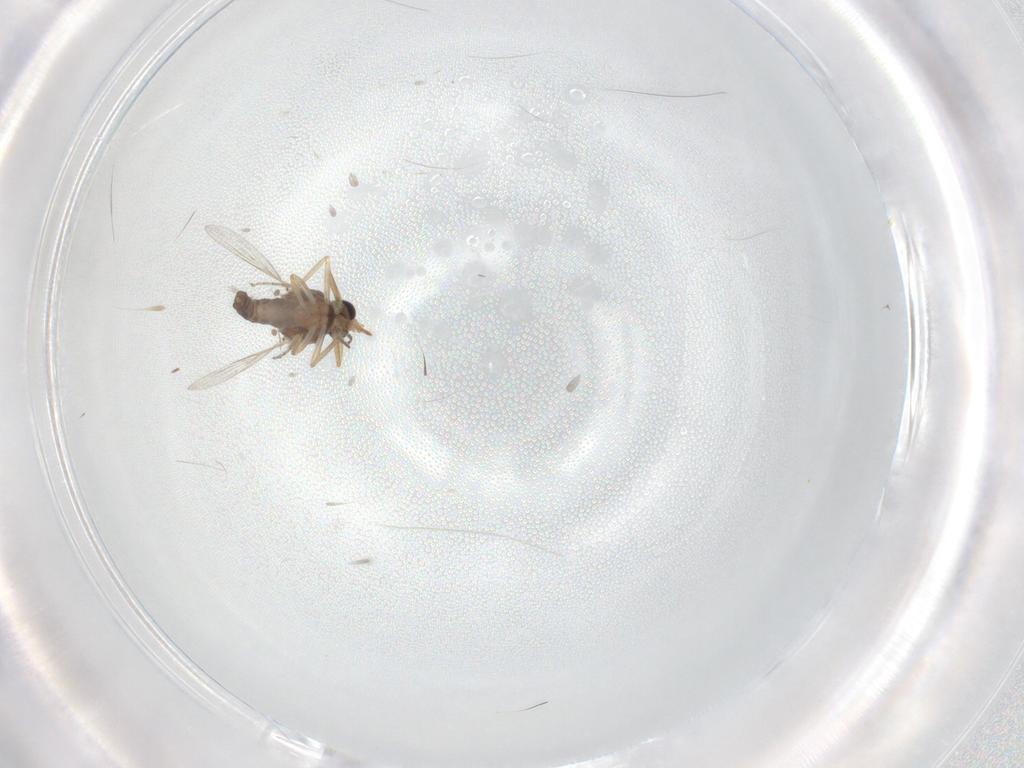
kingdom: Animalia
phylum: Arthropoda
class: Insecta
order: Diptera
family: Ceratopogonidae
